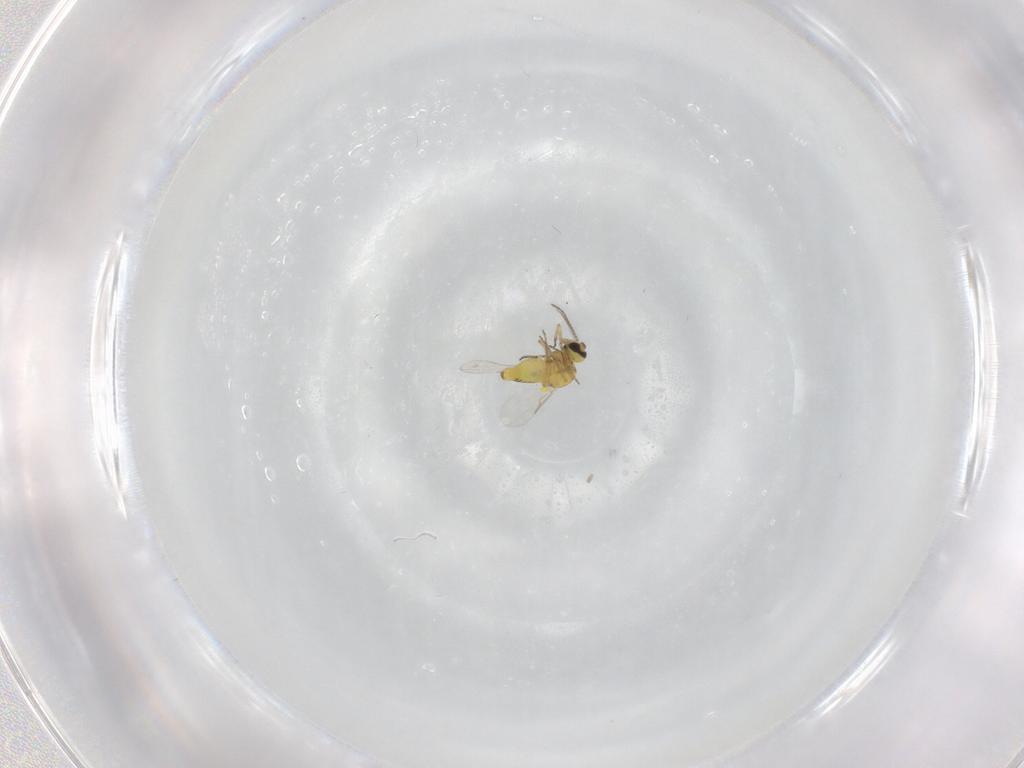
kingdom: Animalia
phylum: Arthropoda
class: Insecta
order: Diptera
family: Ceratopogonidae
